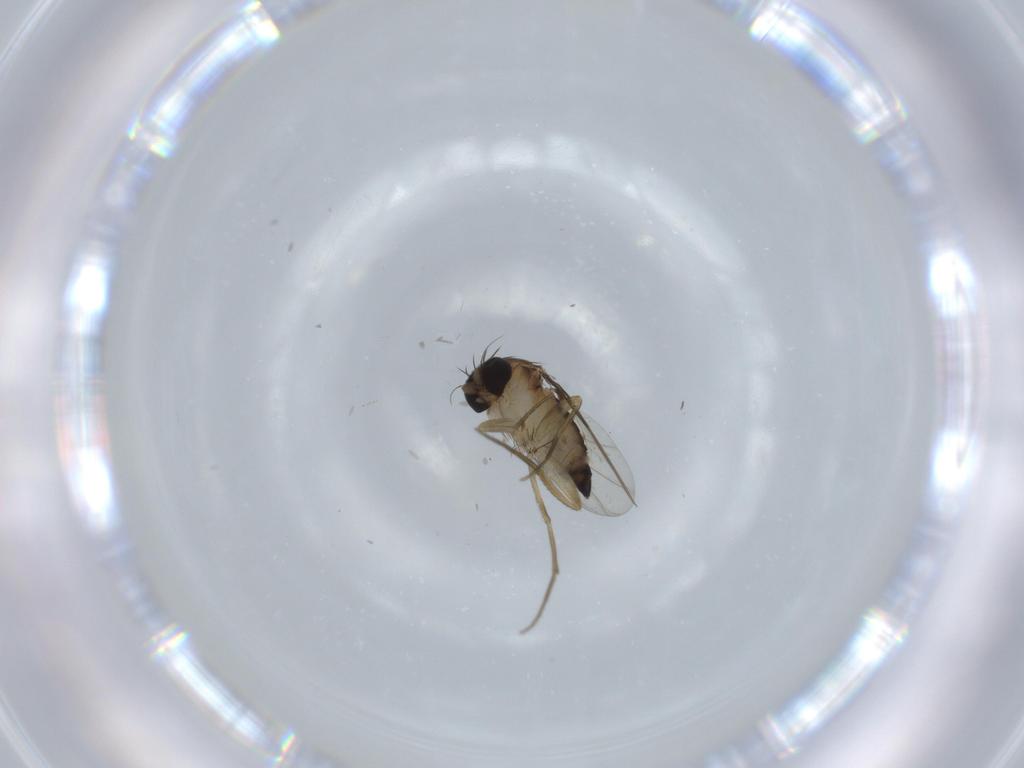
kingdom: Animalia
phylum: Arthropoda
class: Insecta
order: Diptera
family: Phoridae
